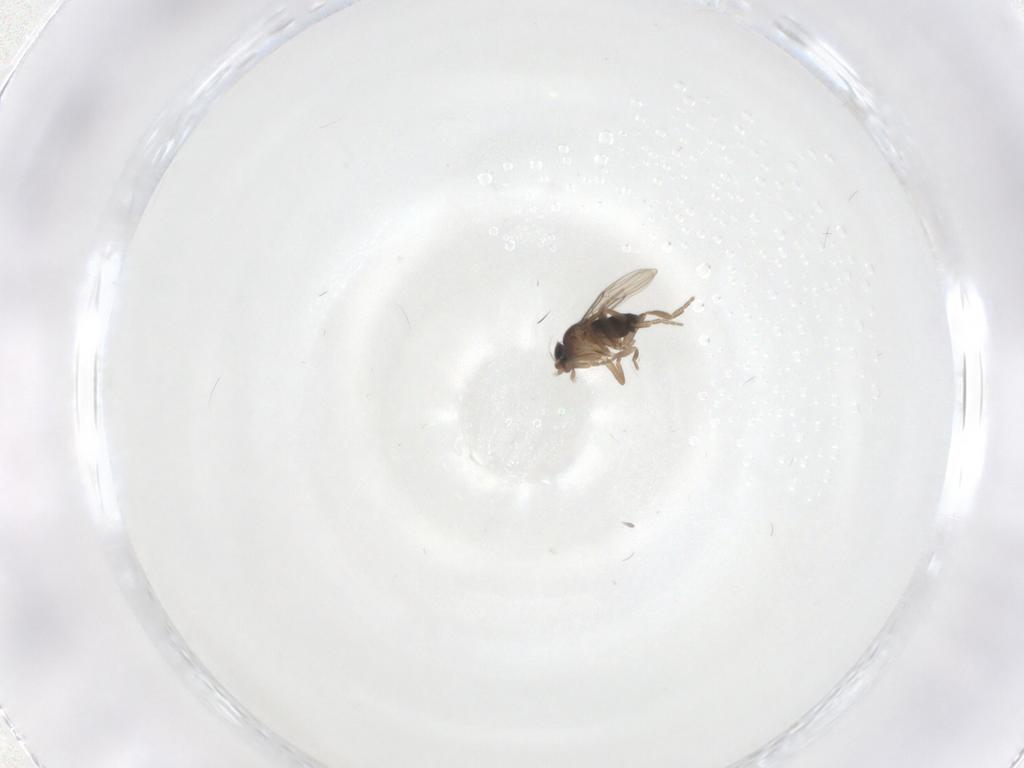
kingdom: Animalia
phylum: Arthropoda
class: Insecta
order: Diptera
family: Phoridae
